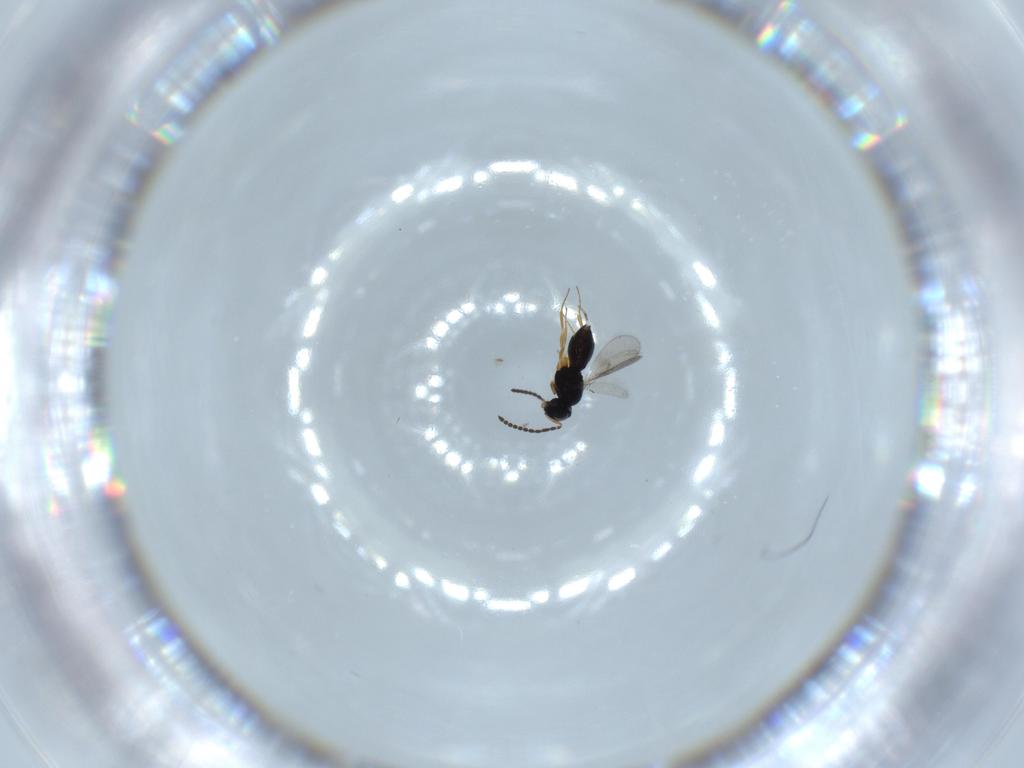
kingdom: Animalia
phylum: Arthropoda
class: Insecta
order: Hymenoptera
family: Scelionidae
